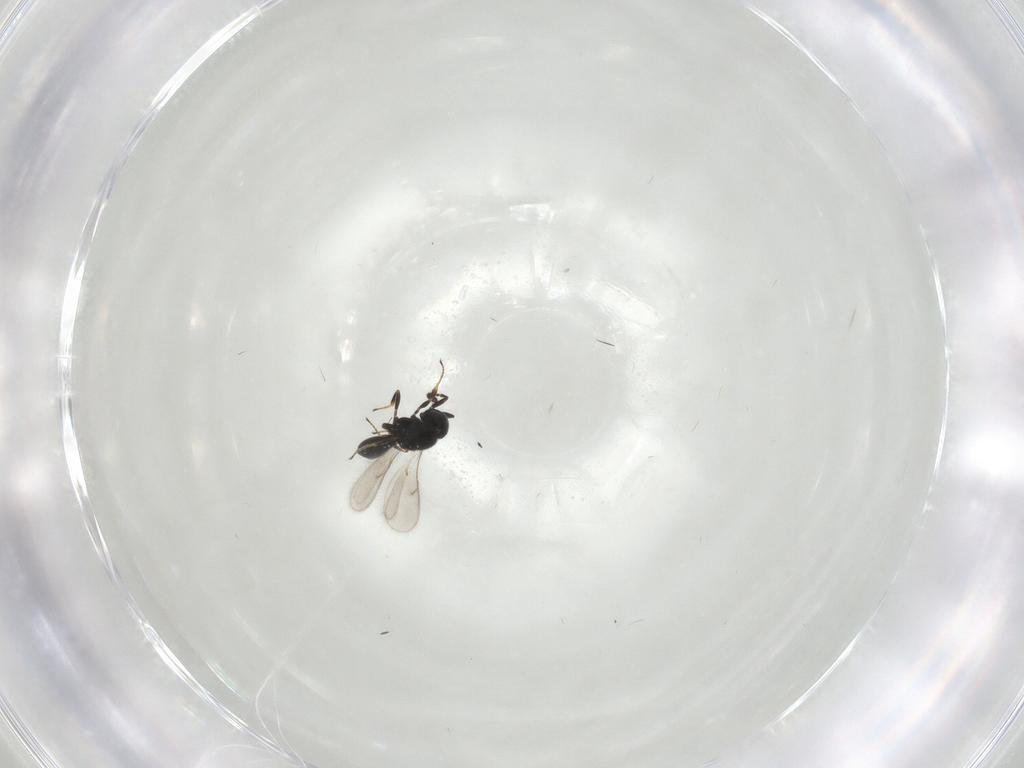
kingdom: Animalia
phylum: Arthropoda
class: Insecta
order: Hymenoptera
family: Scelionidae
